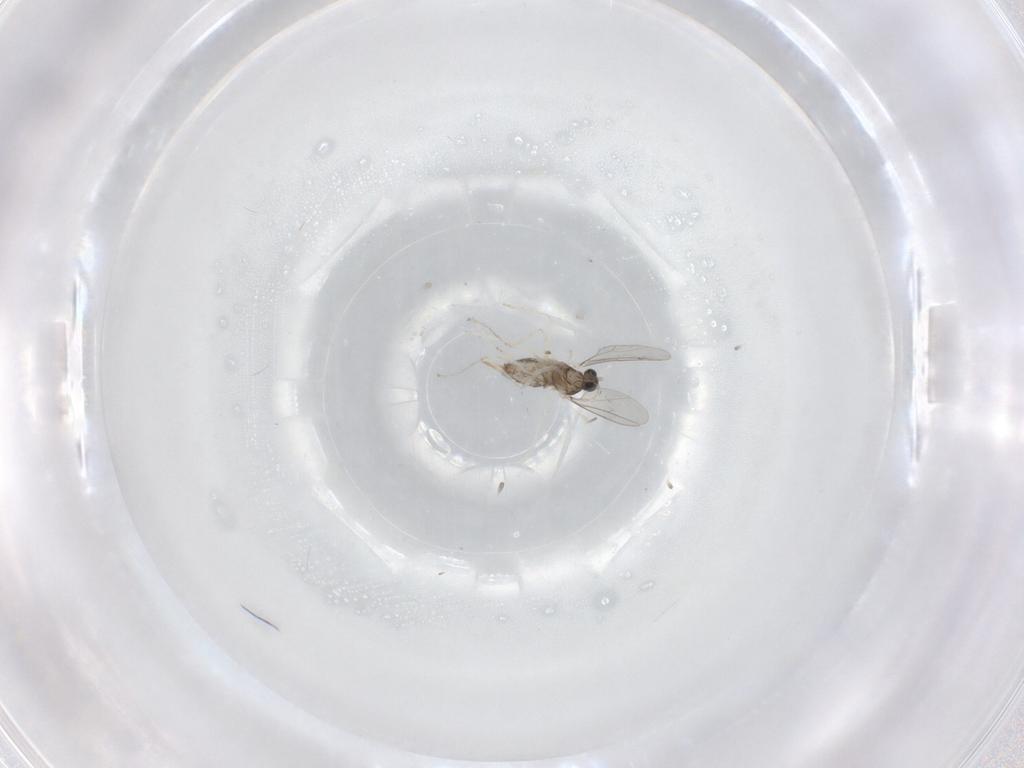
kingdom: Animalia
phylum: Arthropoda
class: Insecta
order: Diptera
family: Cecidomyiidae
